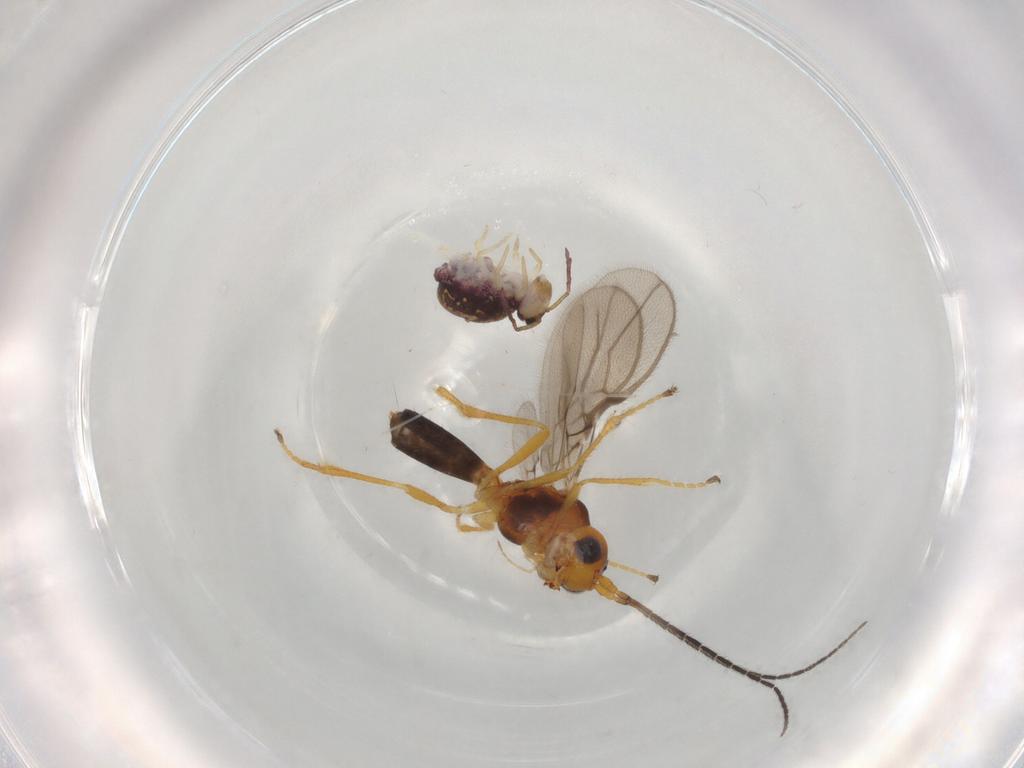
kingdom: Animalia
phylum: Arthropoda
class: Insecta
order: Hymenoptera
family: Braconidae
